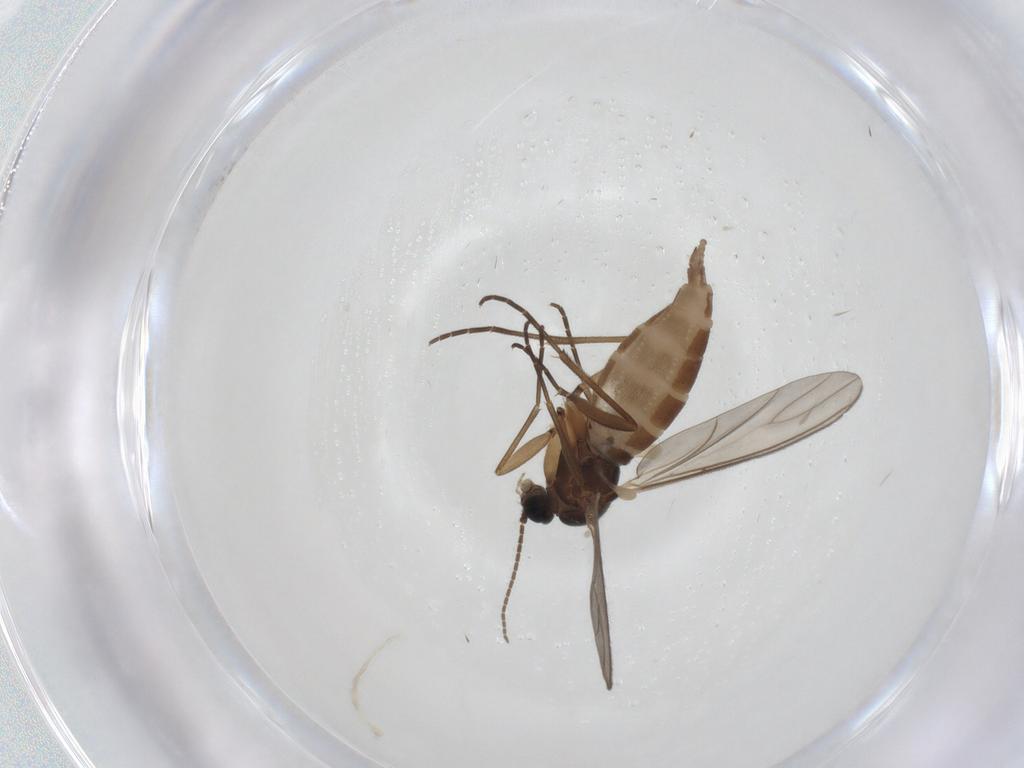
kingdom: Animalia
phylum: Arthropoda
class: Insecta
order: Diptera
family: Sciaridae
